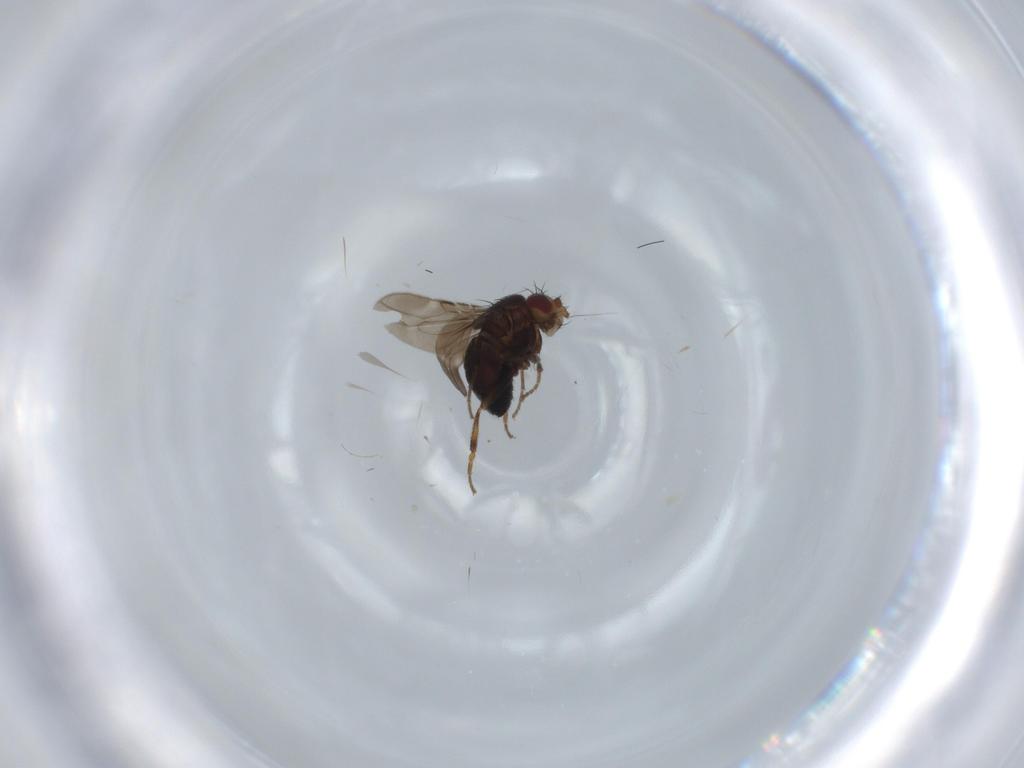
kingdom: Animalia
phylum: Arthropoda
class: Insecta
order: Diptera
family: Sphaeroceridae
